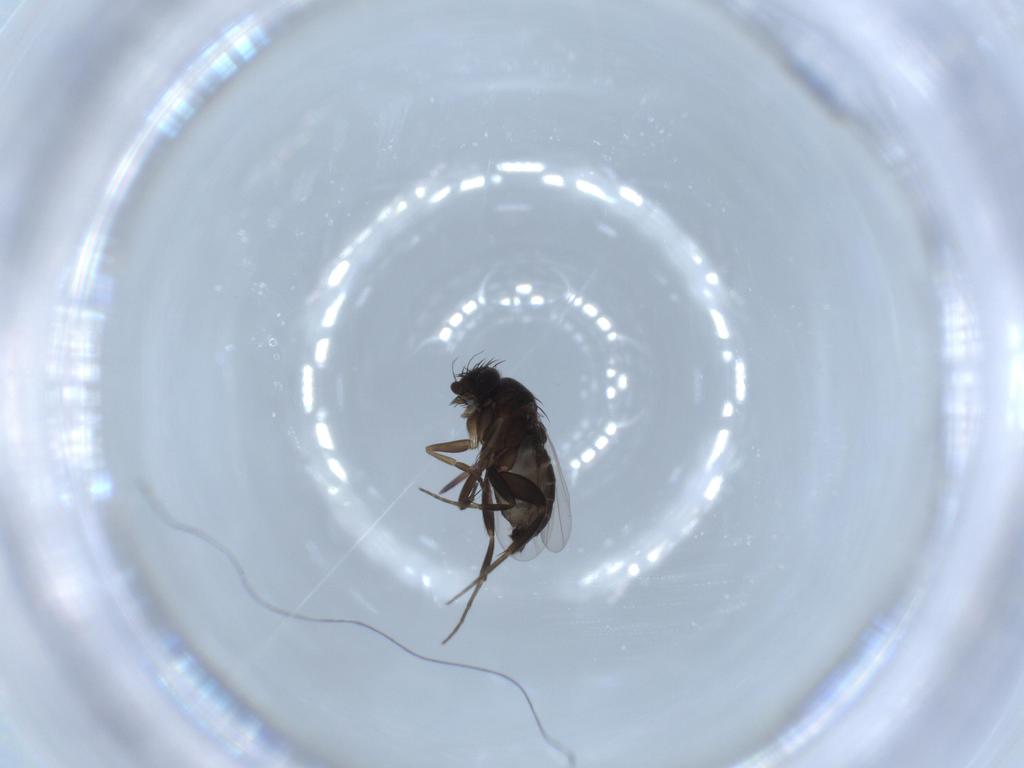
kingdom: Animalia
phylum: Arthropoda
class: Insecta
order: Diptera
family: Phoridae
